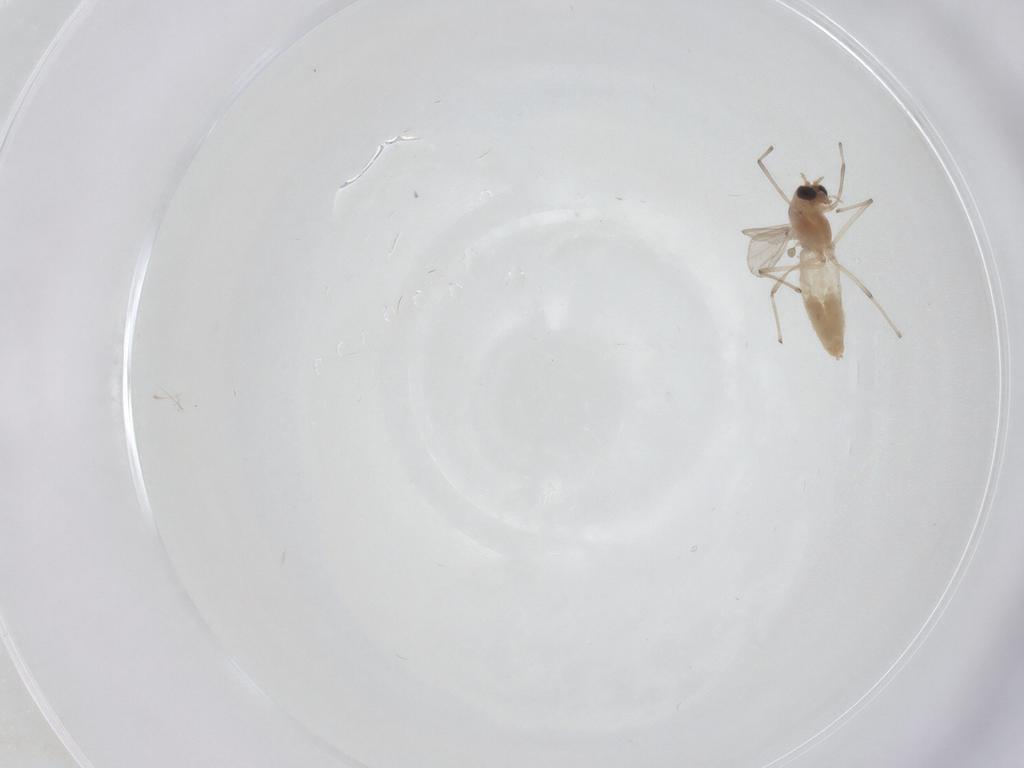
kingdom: Animalia
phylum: Arthropoda
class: Insecta
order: Diptera
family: Chironomidae
